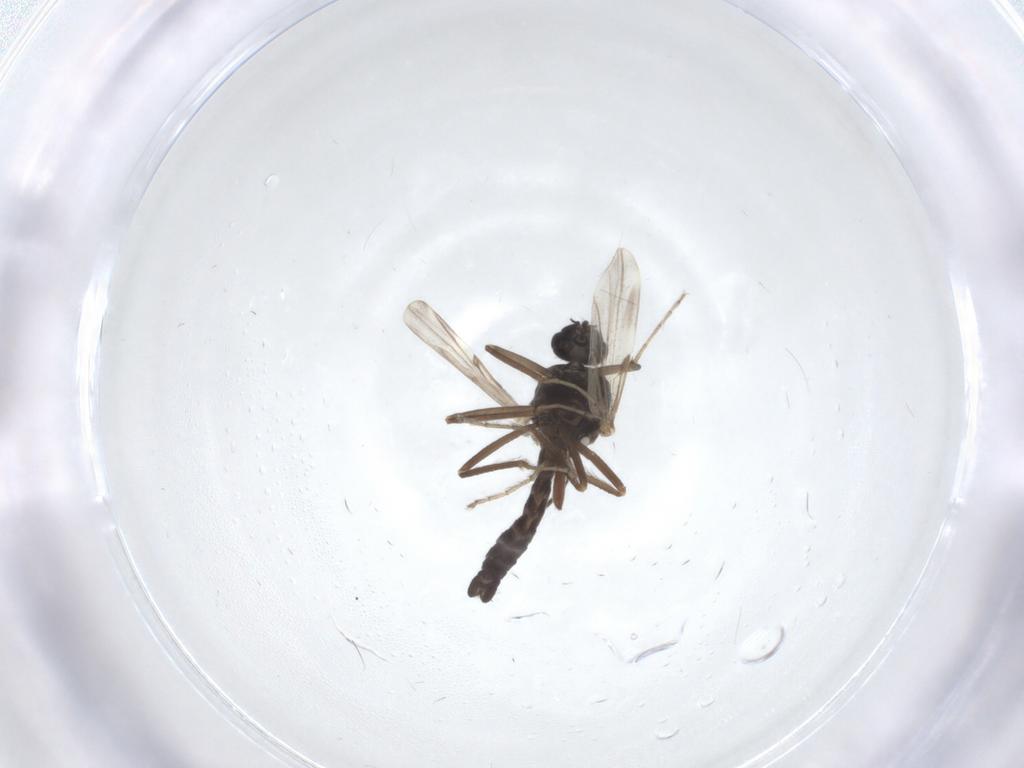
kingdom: Animalia
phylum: Arthropoda
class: Insecta
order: Diptera
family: Ceratopogonidae
